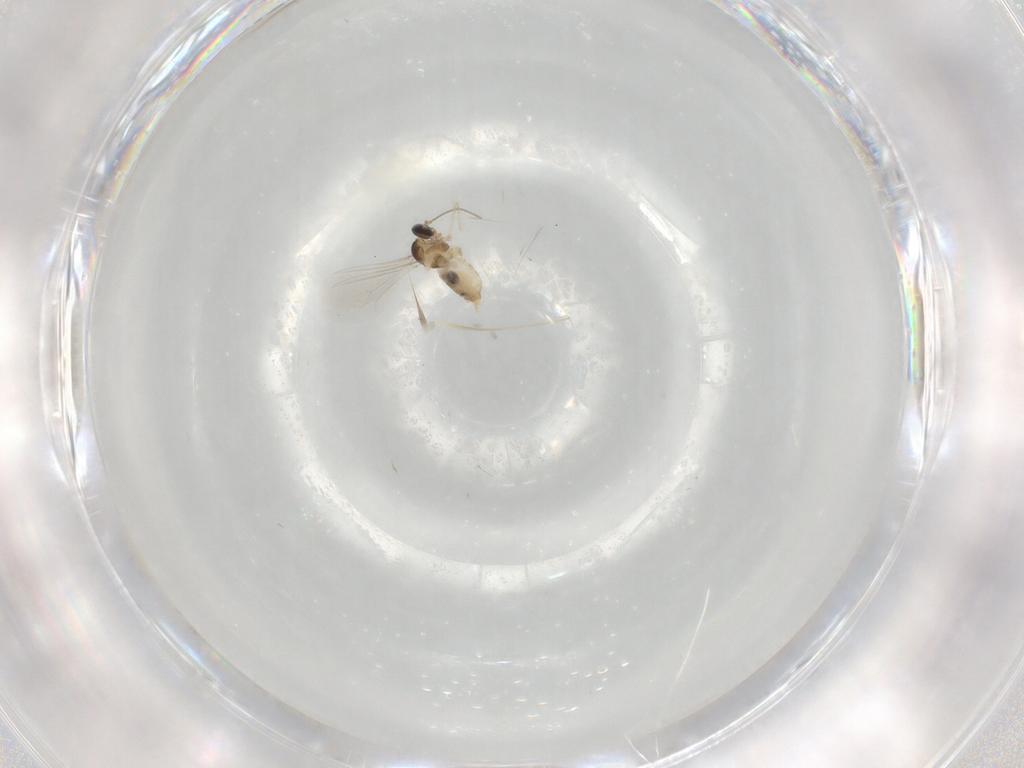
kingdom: Animalia
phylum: Arthropoda
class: Insecta
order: Diptera
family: Cecidomyiidae
